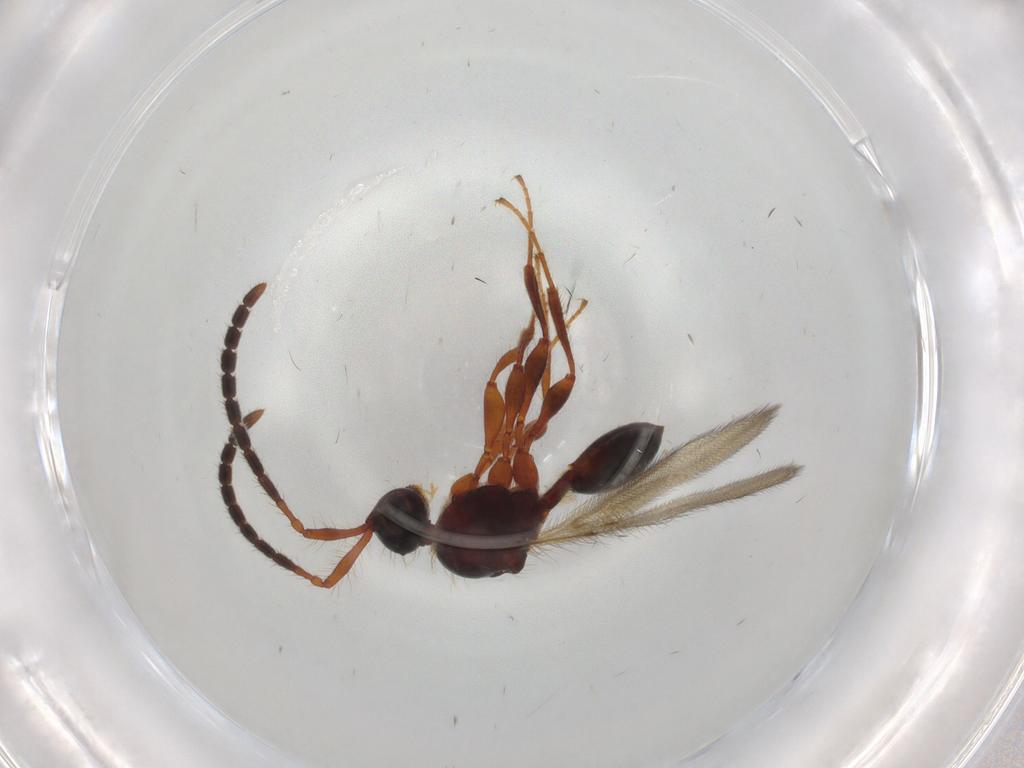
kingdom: Animalia
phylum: Arthropoda
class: Insecta
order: Hymenoptera
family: Diapriidae
